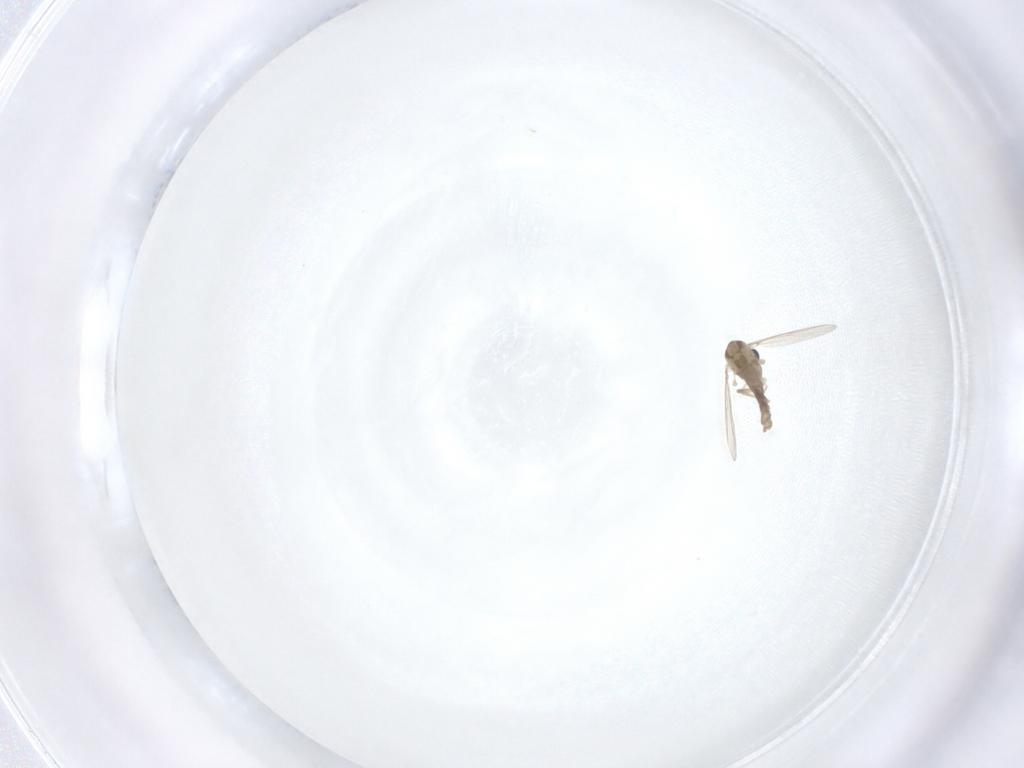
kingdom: Animalia
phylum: Arthropoda
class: Insecta
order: Diptera
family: Chironomidae
